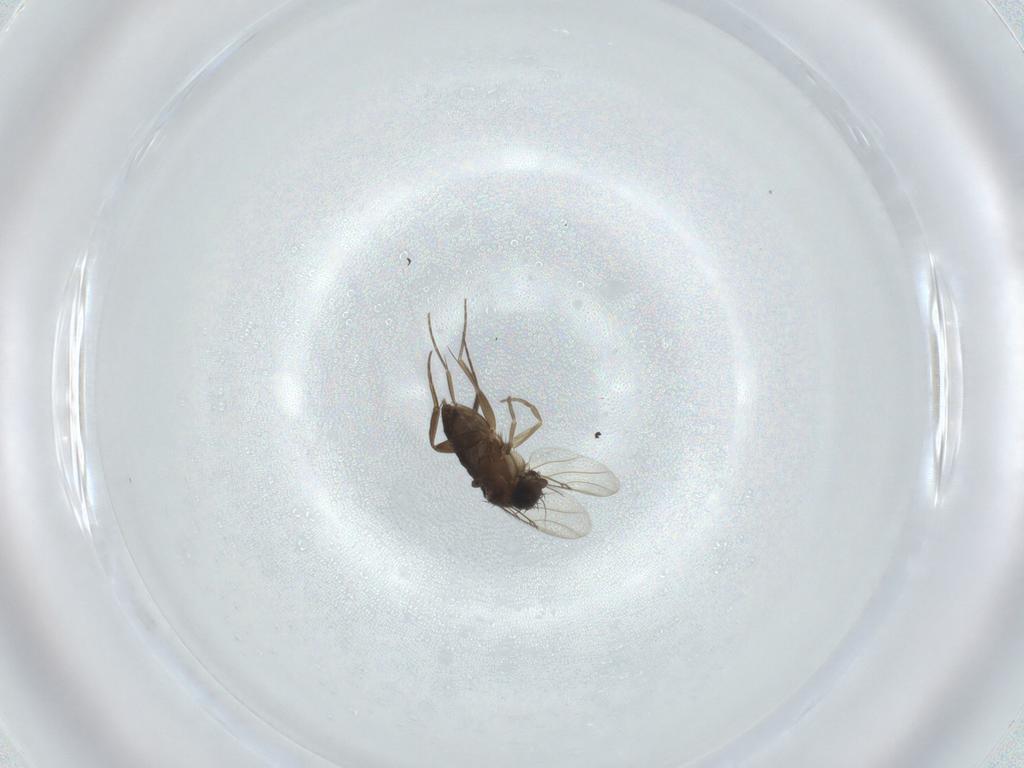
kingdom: Animalia
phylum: Arthropoda
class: Insecta
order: Diptera
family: Phoridae
